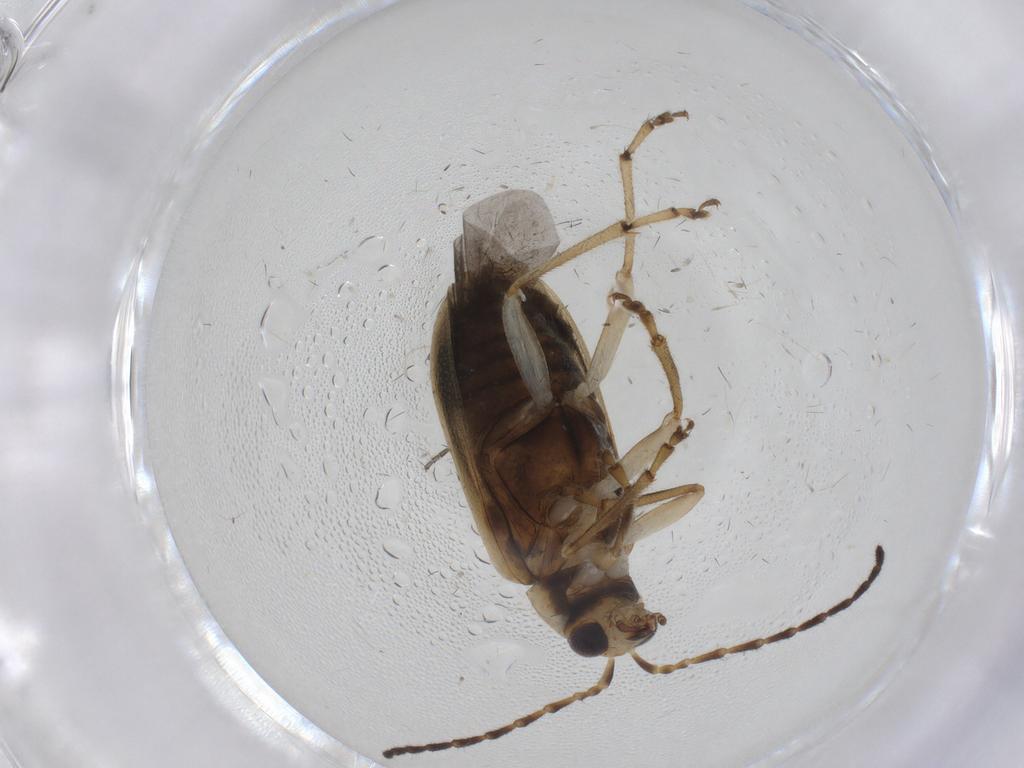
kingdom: Animalia
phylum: Arthropoda
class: Insecta
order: Coleoptera
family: Chrysomelidae
